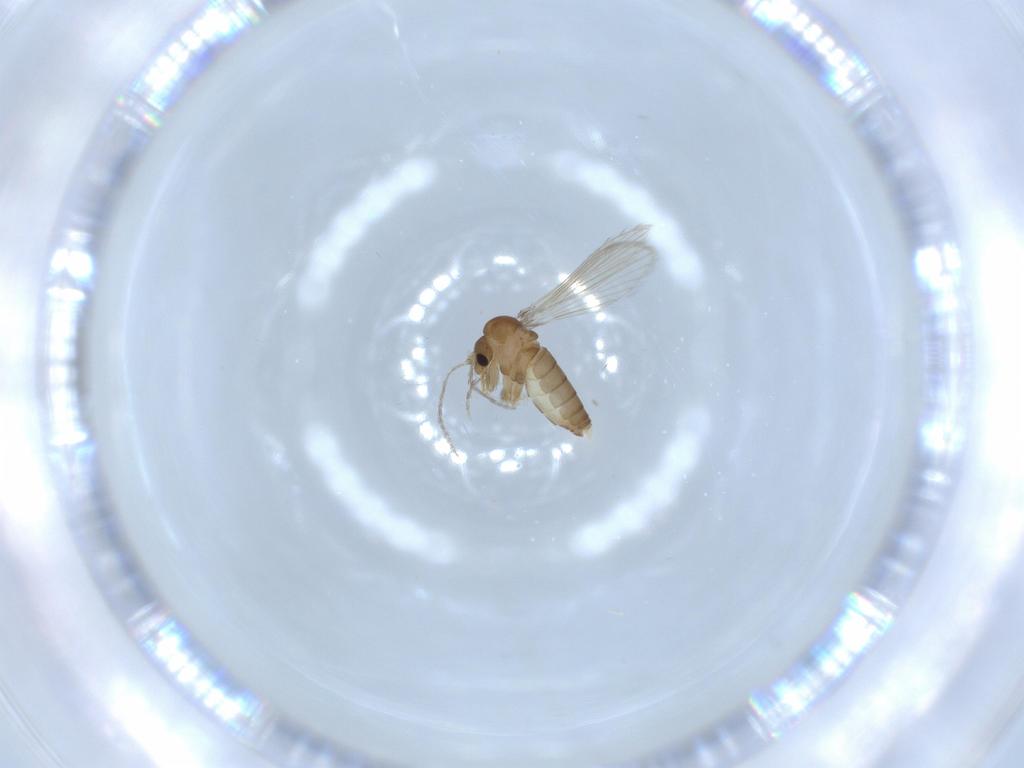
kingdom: Animalia
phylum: Arthropoda
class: Insecta
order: Diptera
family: Psychodidae
